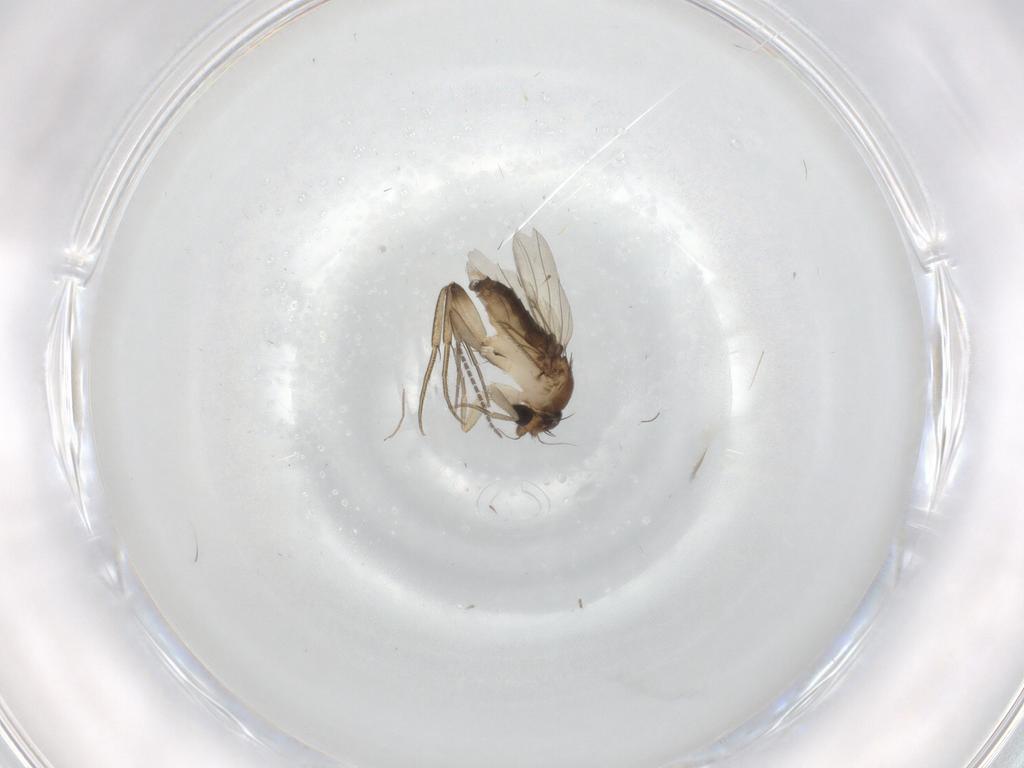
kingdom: Animalia
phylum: Arthropoda
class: Insecta
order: Diptera
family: Phoridae
